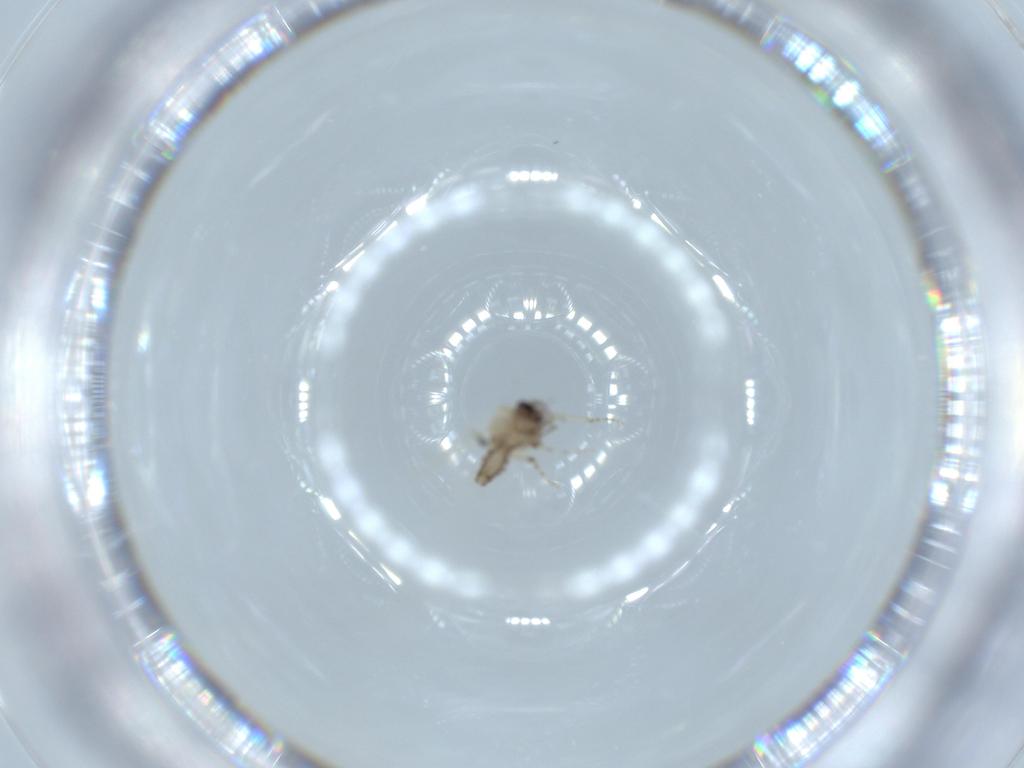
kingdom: Animalia
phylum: Arthropoda
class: Insecta
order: Diptera
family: Ceratopogonidae
